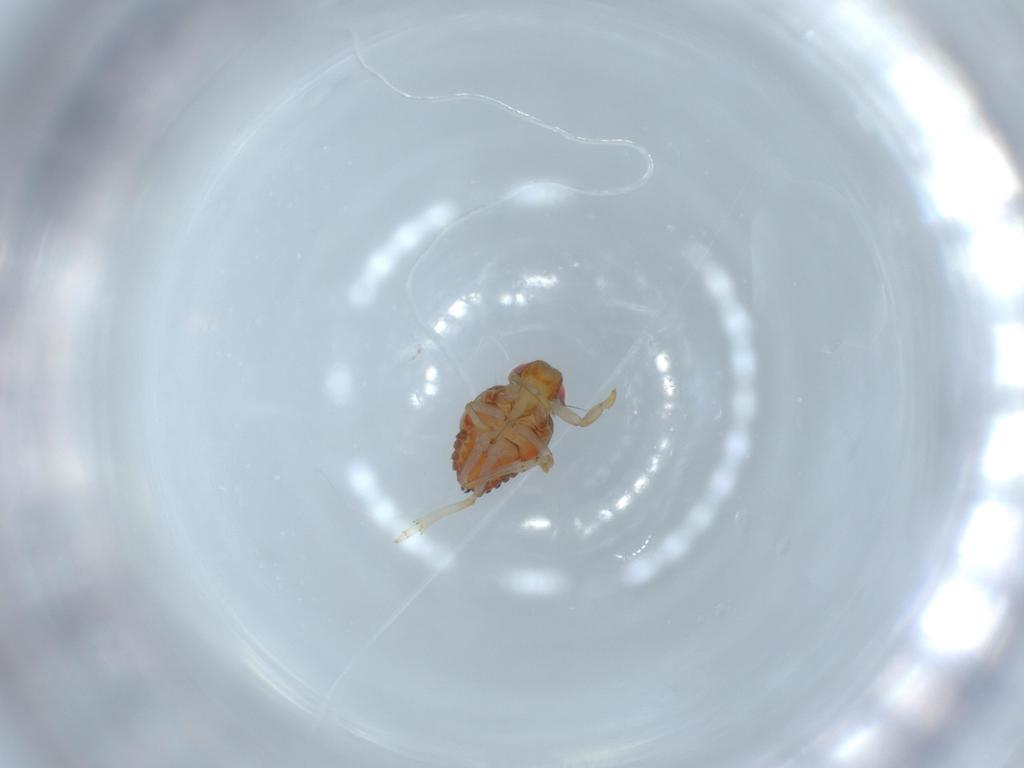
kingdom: Animalia
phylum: Arthropoda
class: Insecta
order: Hemiptera
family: Issidae
